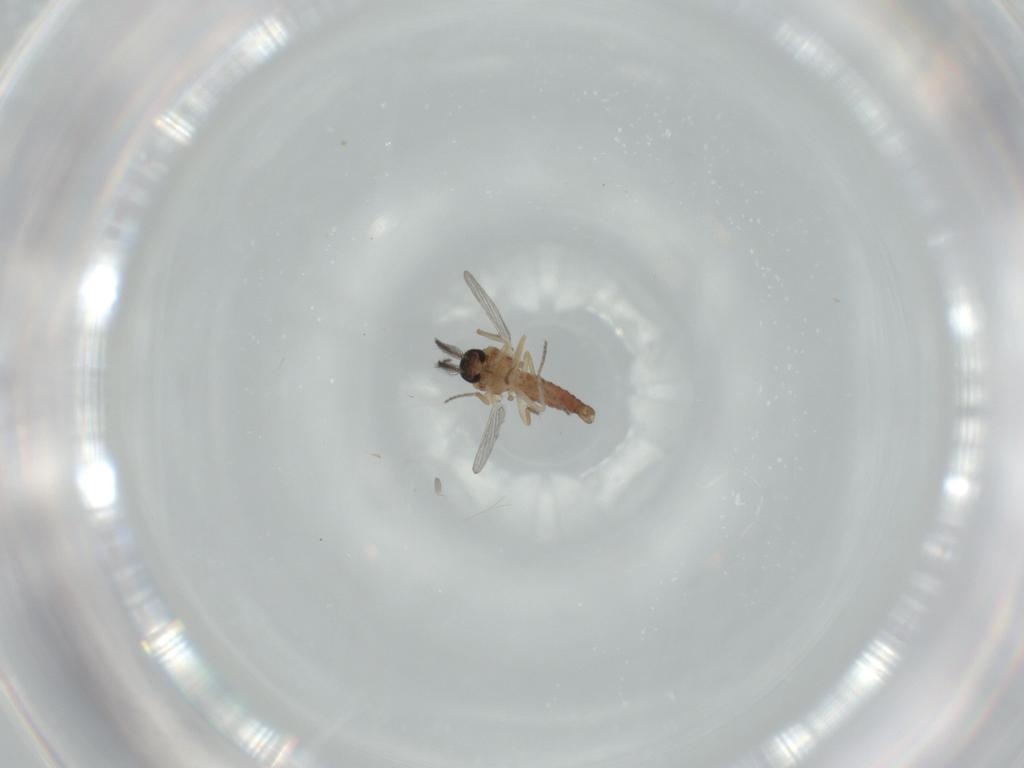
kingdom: Animalia
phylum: Arthropoda
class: Insecta
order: Diptera
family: Ceratopogonidae
